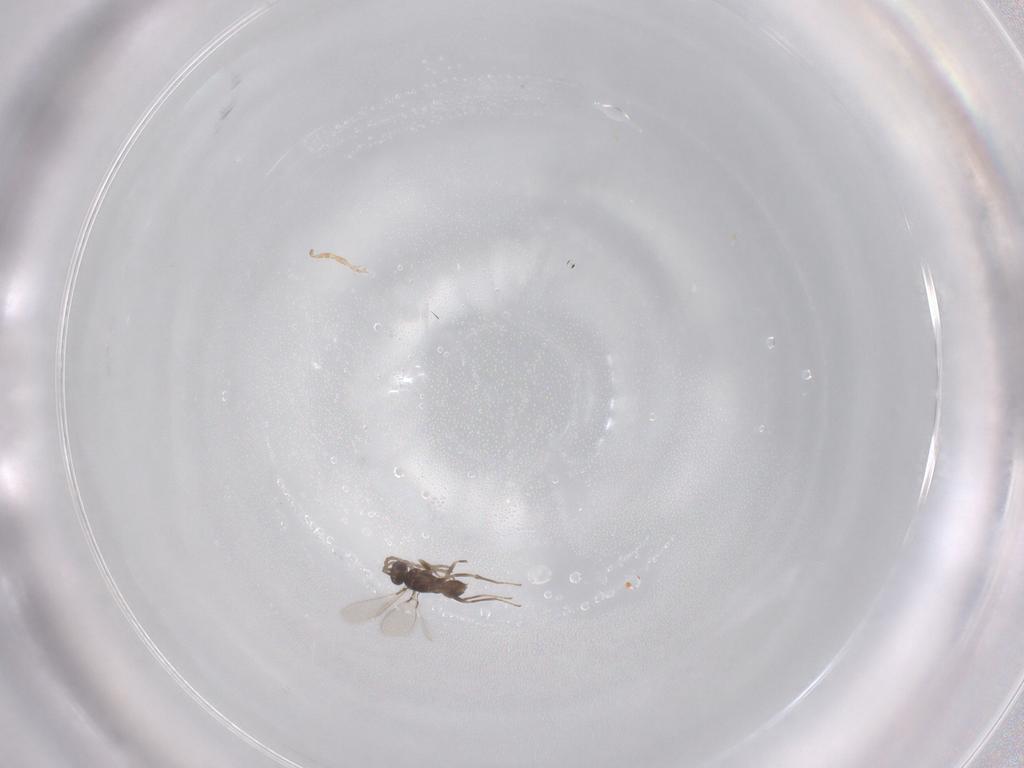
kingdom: Animalia
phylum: Arthropoda
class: Insecta
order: Hymenoptera
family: Mymaridae
